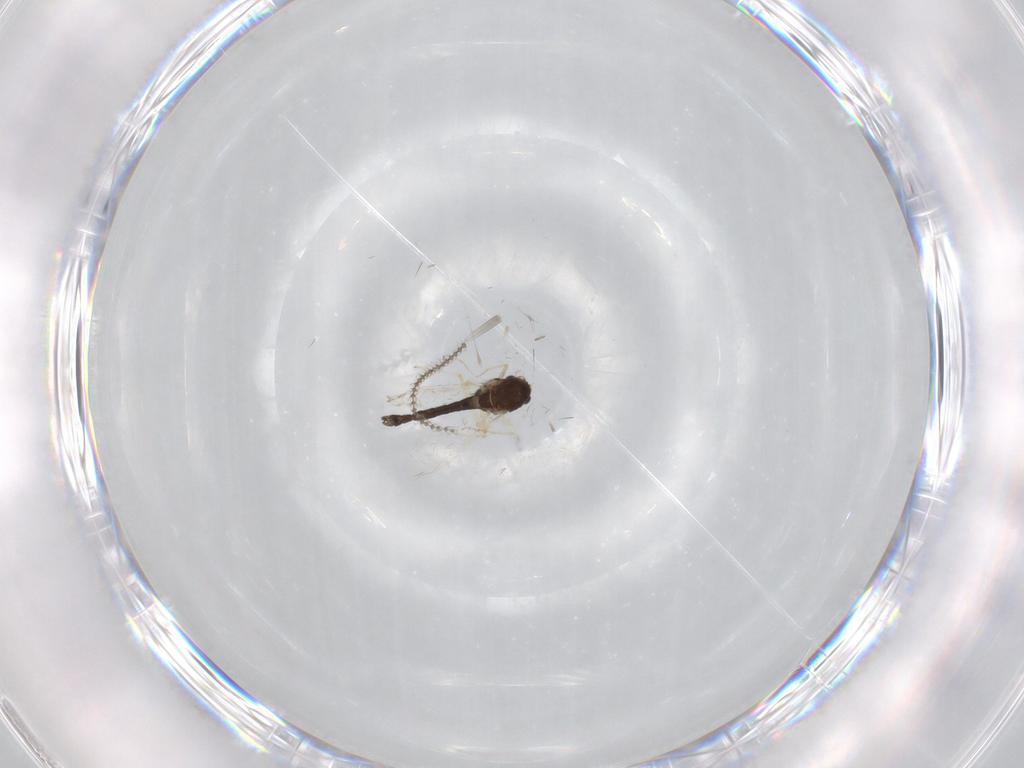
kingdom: Animalia
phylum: Arthropoda
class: Insecta
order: Diptera
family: Chironomidae
